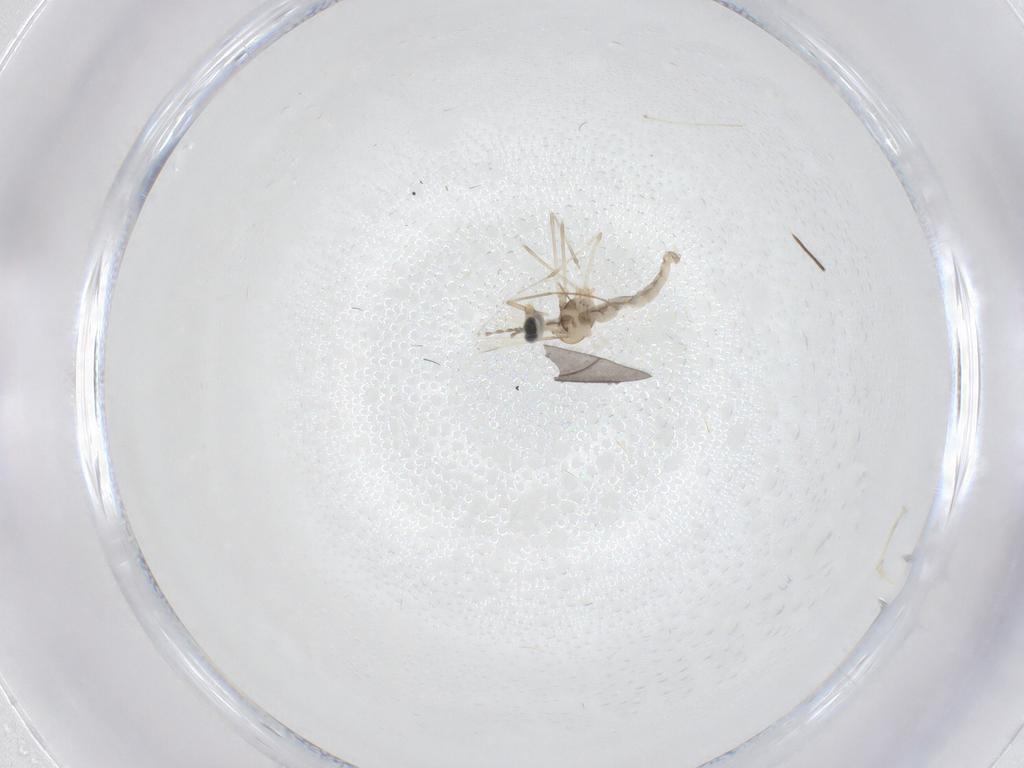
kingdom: Animalia
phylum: Arthropoda
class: Insecta
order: Diptera
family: Chironomidae
